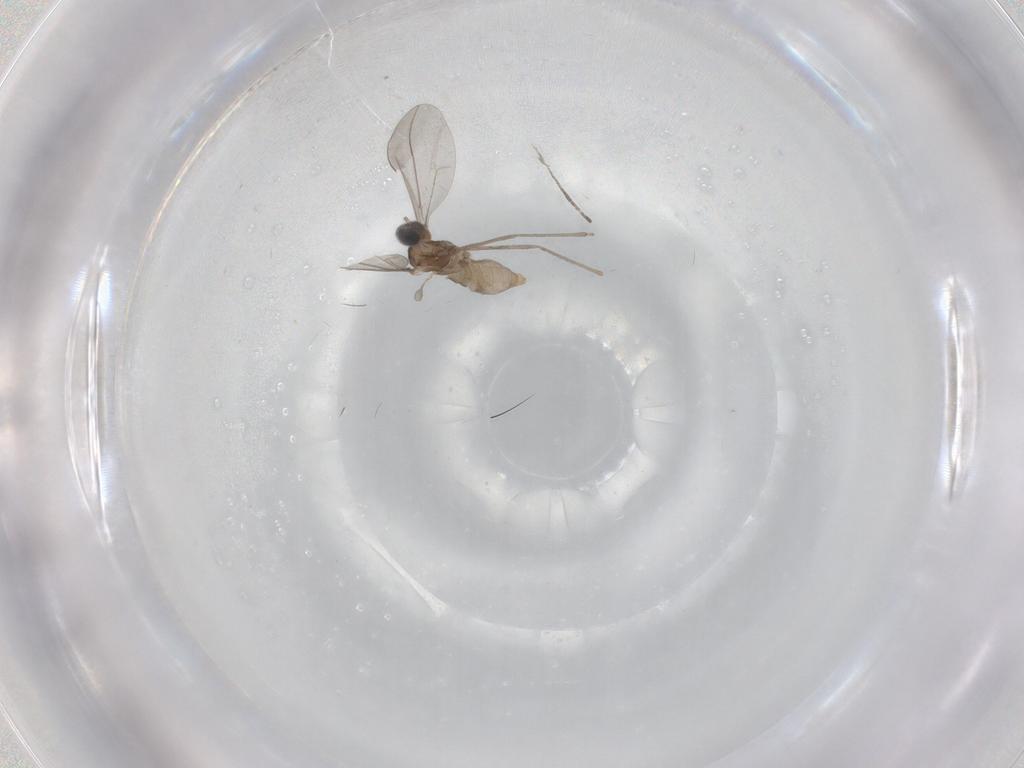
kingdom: Animalia
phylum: Arthropoda
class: Insecta
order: Diptera
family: Cecidomyiidae
